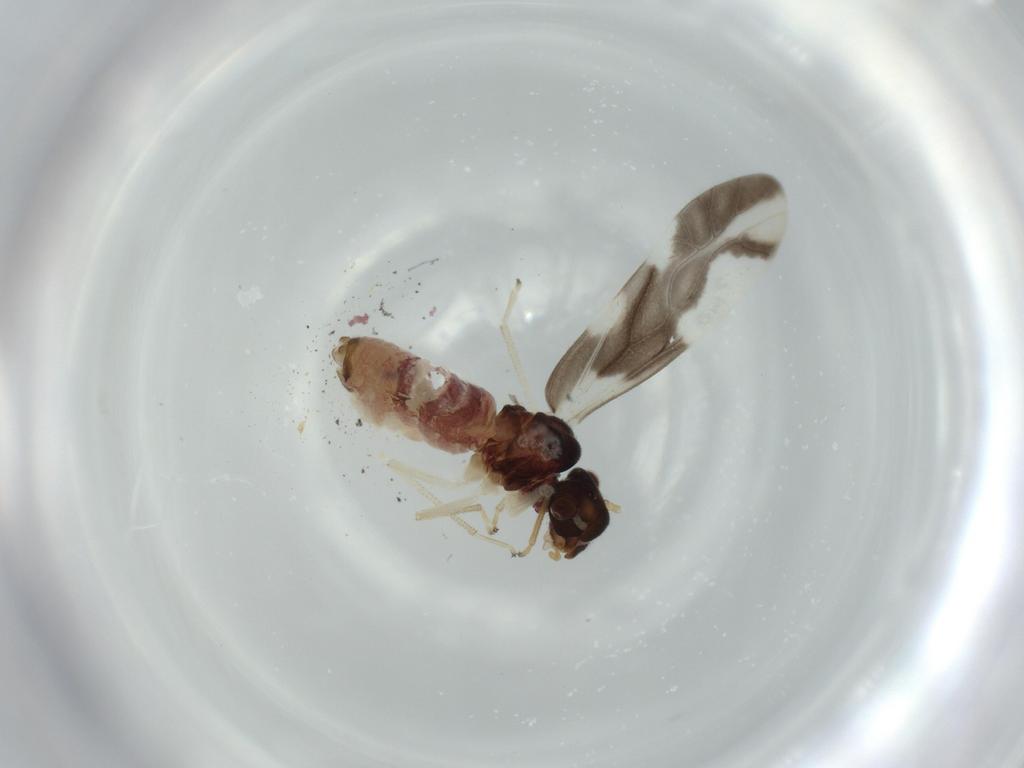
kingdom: Animalia
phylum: Arthropoda
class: Insecta
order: Psocodea
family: Caeciliusidae
